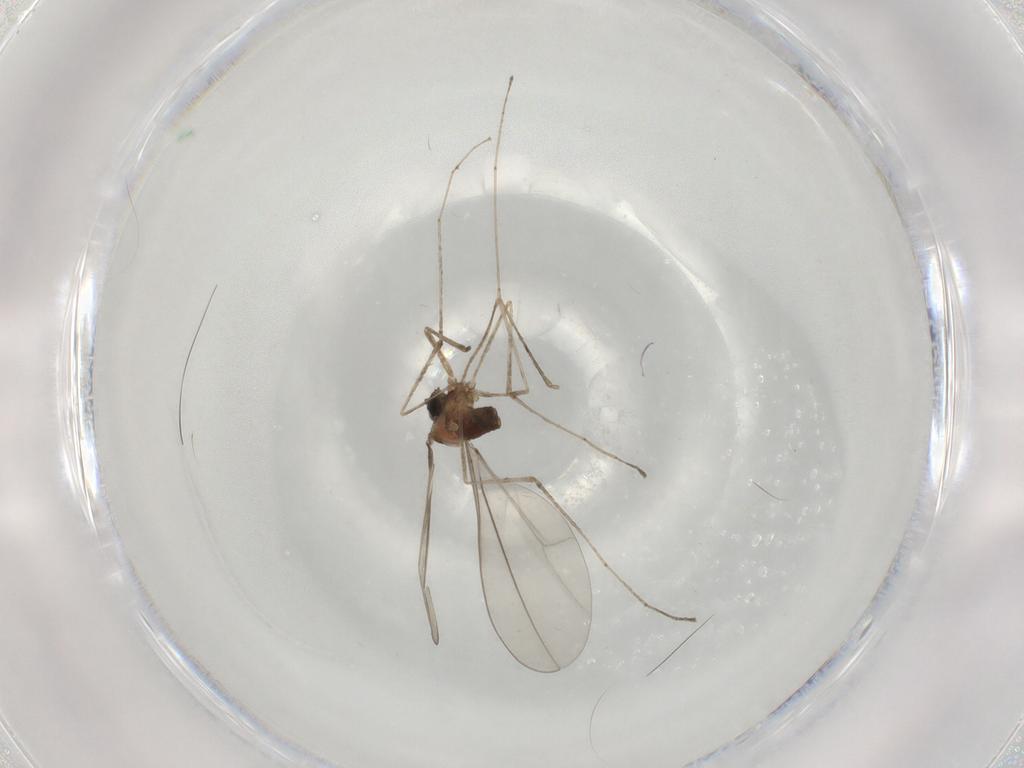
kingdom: Animalia
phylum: Arthropoda
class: Insecta
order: Diptera
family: Cecidomyiidae
